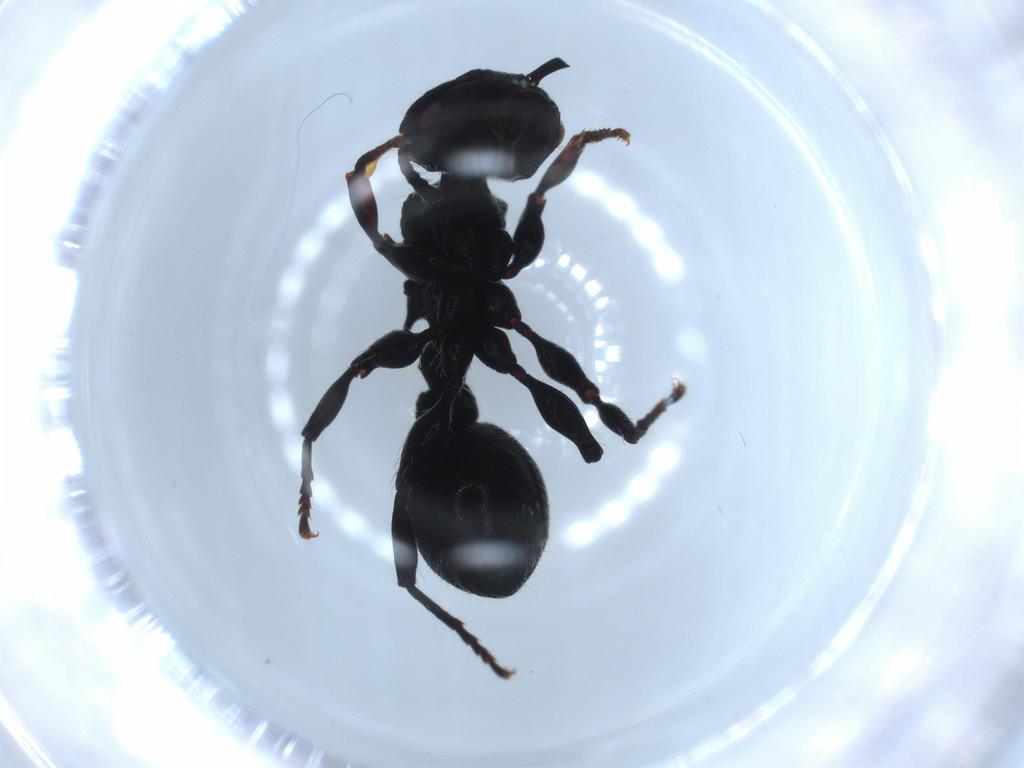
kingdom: Animalia
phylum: Arthropoda
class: Insecta
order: Hymenoptera
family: Formicidae
